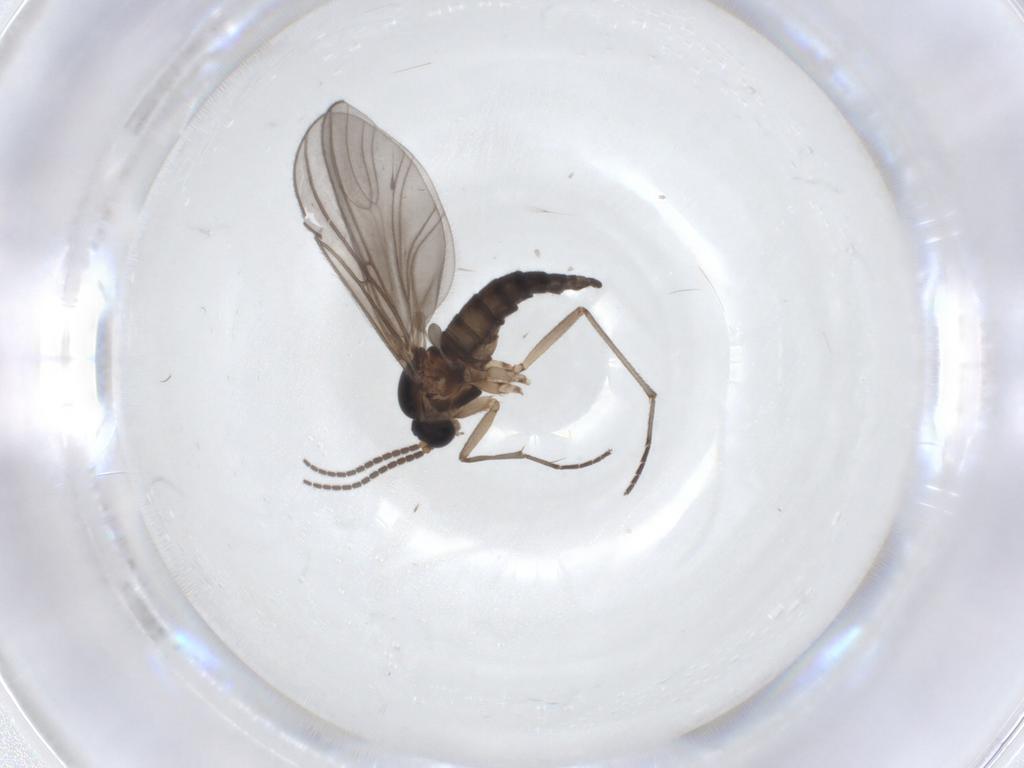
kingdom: Animalia
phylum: Arthropoda
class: Insecta
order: Diptera
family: Sciaridae
